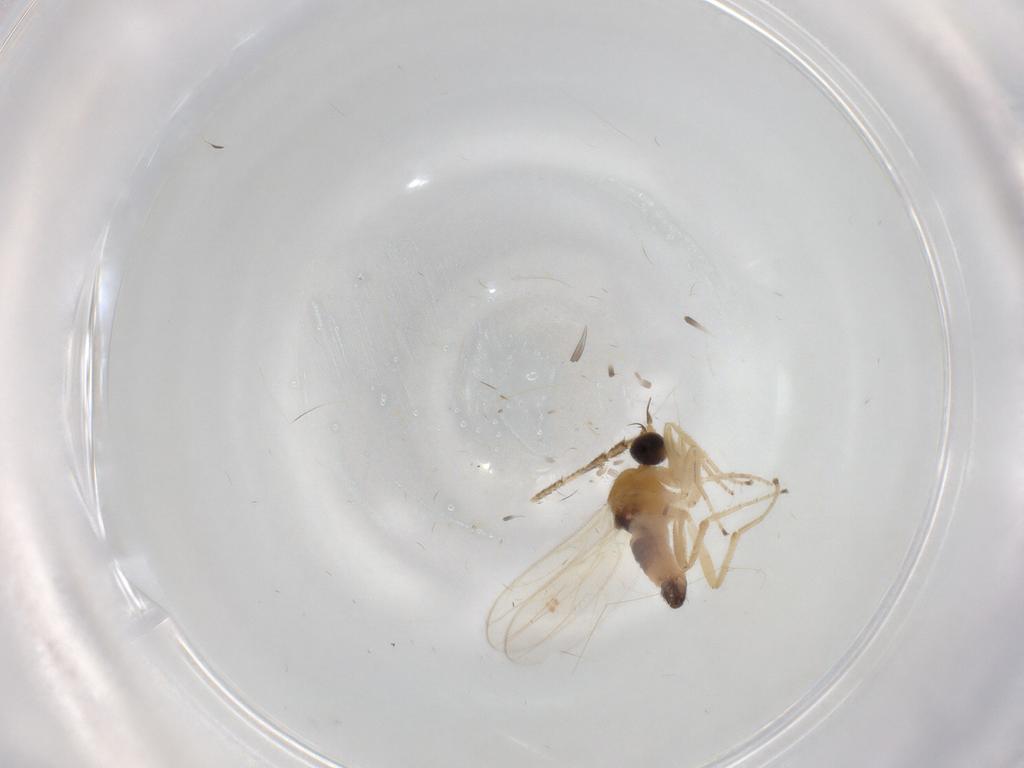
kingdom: Animalia
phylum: Arthropoda
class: Insecta
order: Diptera
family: Hybotidae
